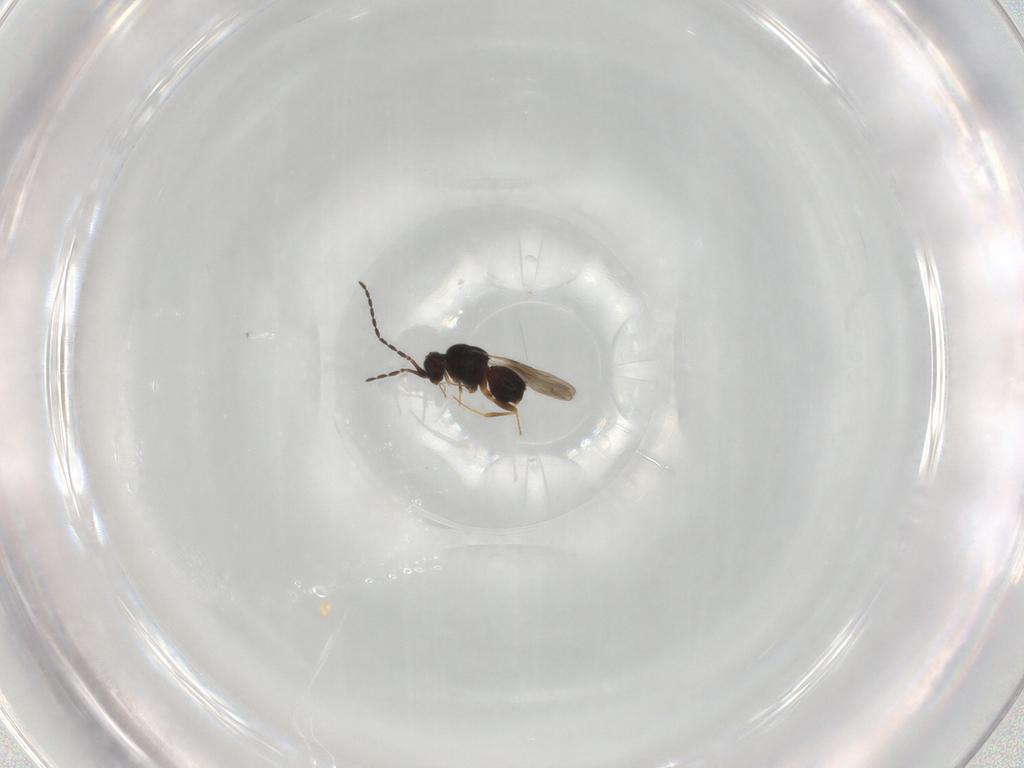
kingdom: Animalia
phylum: Arthropoda
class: Insecta
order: Hymenoptera
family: Ceraphronidae
